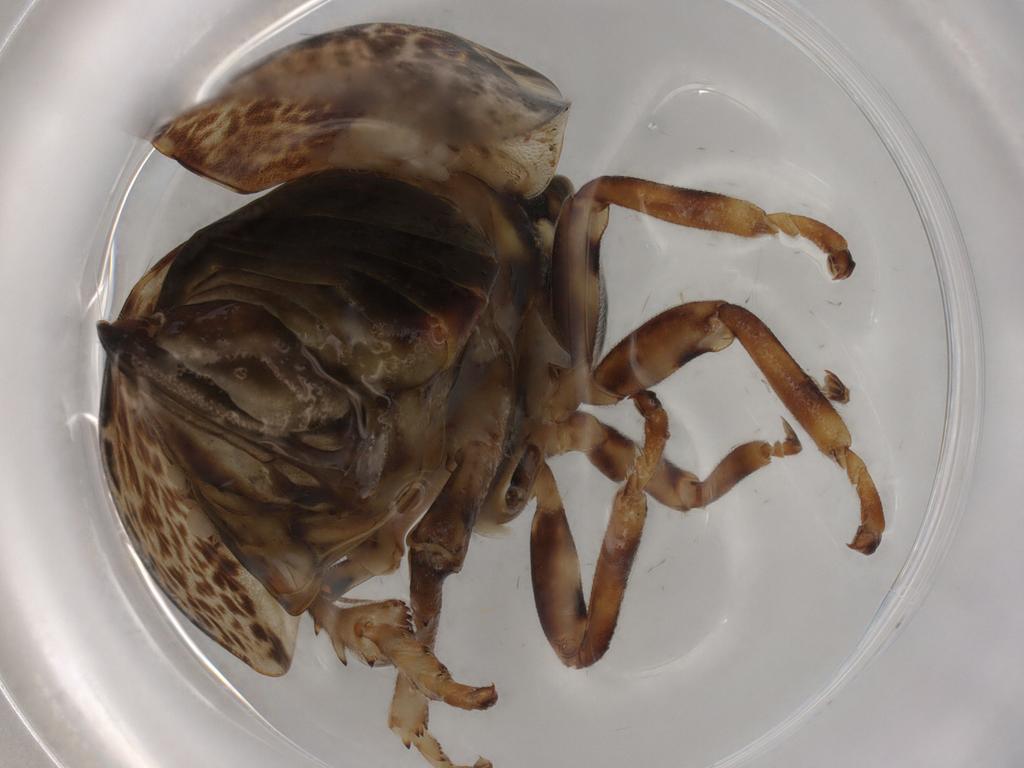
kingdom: Animalia
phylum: Arthropoda
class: Insecta
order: Hemiptera
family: Aphrophoridae
